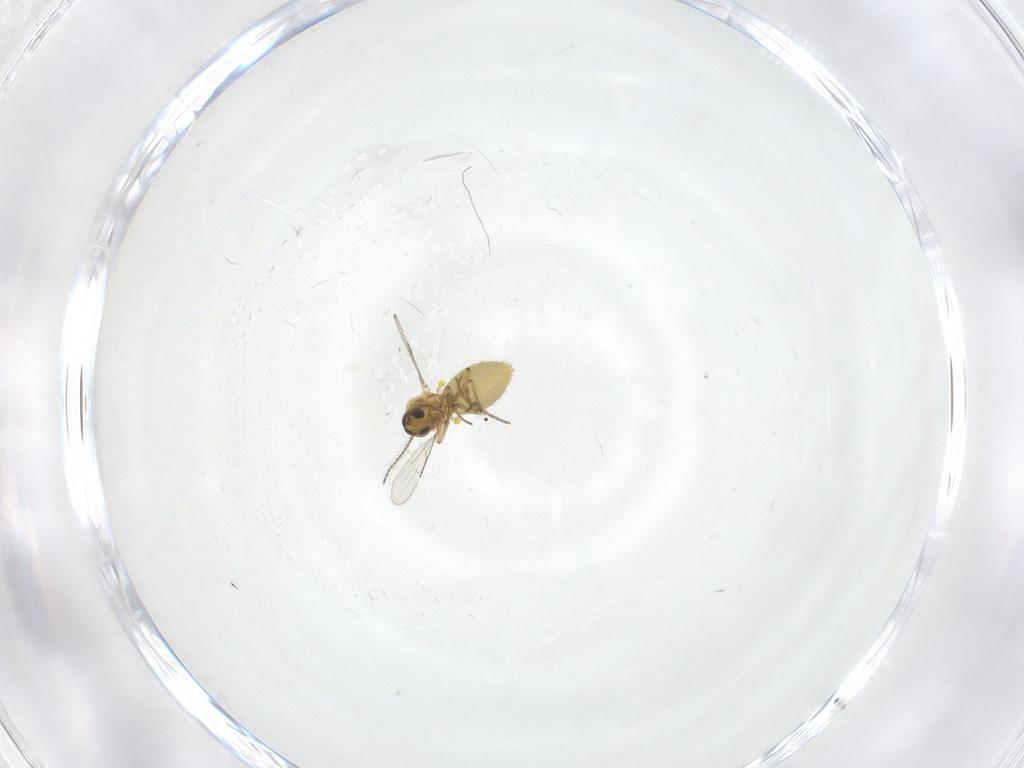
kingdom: Animalia
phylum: Arthropoda
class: Insecta
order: Diptera
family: Ceratopogonidae
